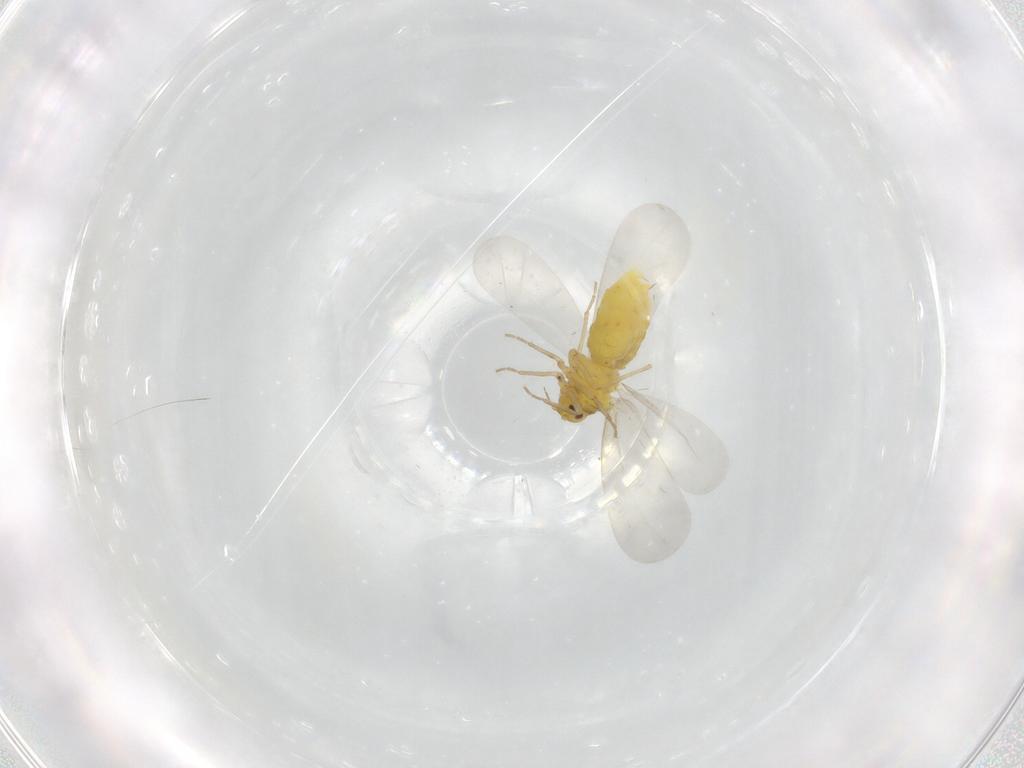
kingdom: Animalia
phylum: Arthropoda
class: Insecta
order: Hemiptera
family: Aleyrodidae
